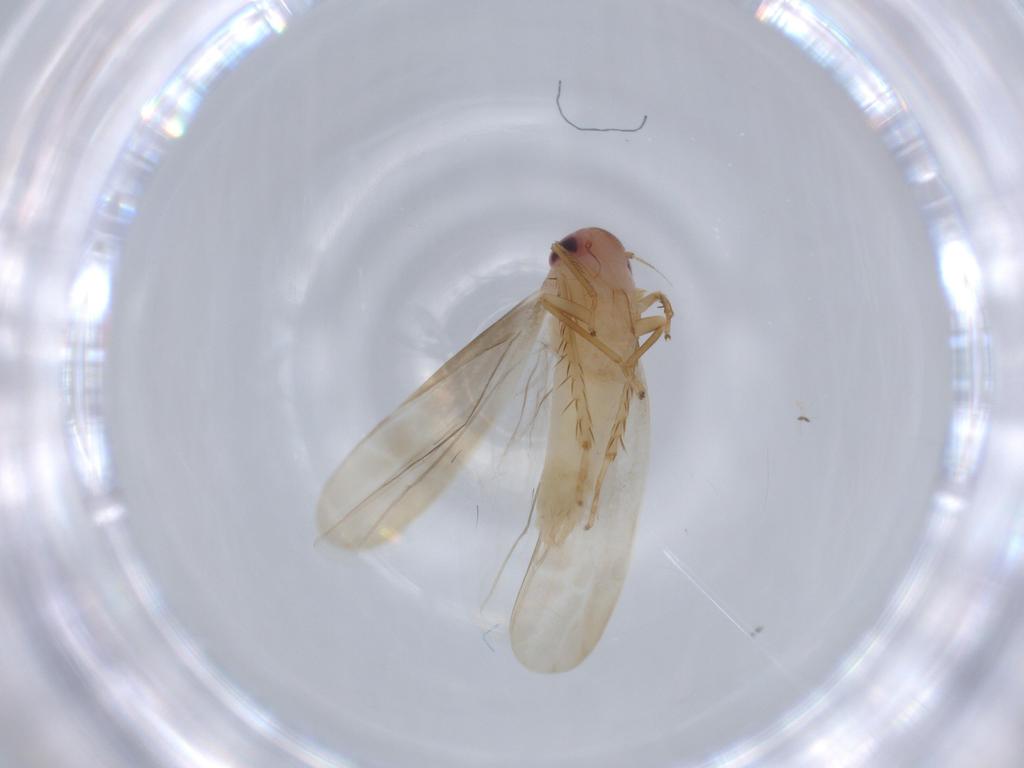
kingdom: Animalia
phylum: Arthropoda
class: Insecta
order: Hemiptera
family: Cicadellidae
